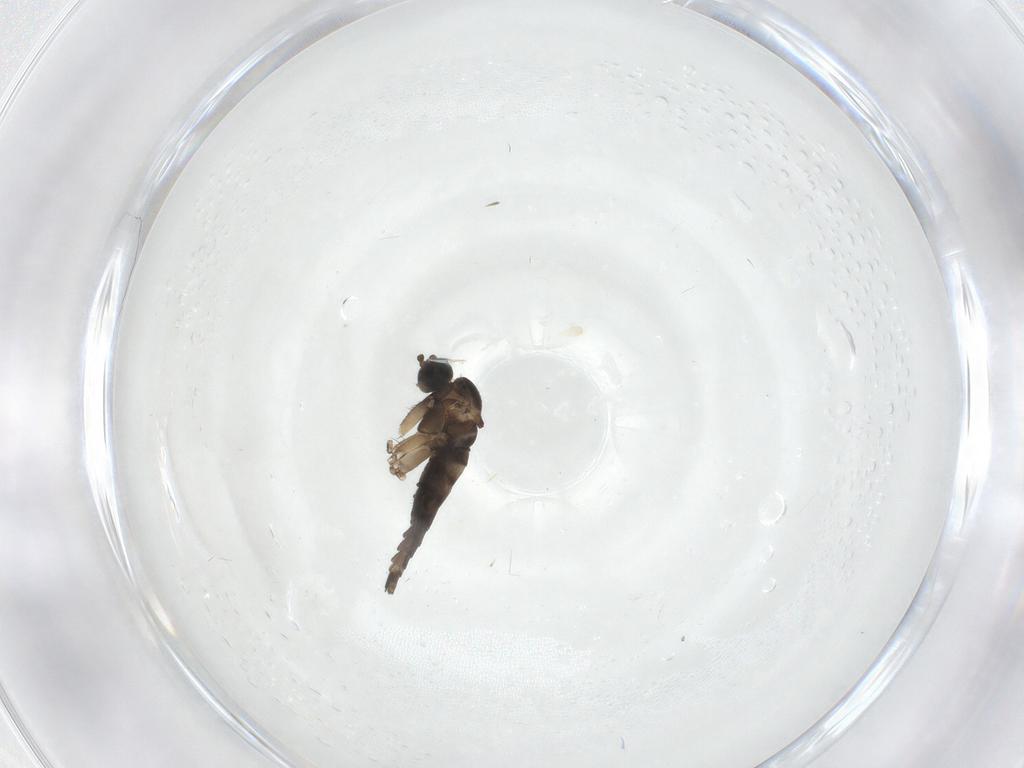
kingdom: Animalia
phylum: Arthropoda
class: Insecta
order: Diptera
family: Sciaridae
